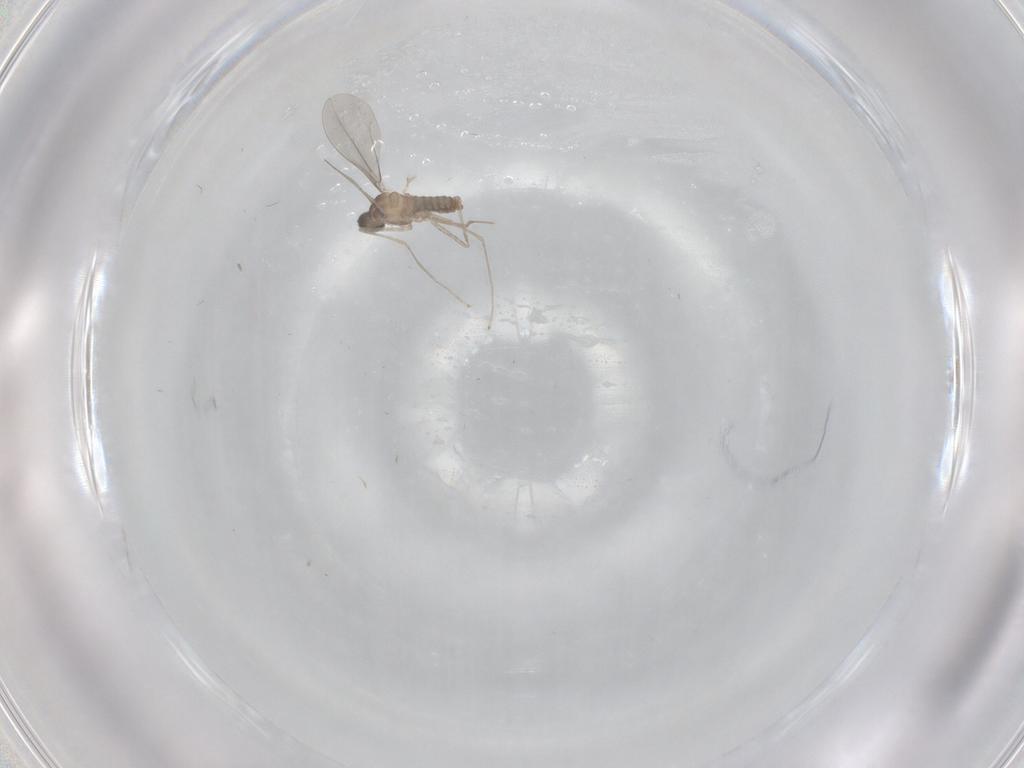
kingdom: Animalia
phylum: Arthropoda
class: Insecta
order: Diptera
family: Cecidomyiidae
